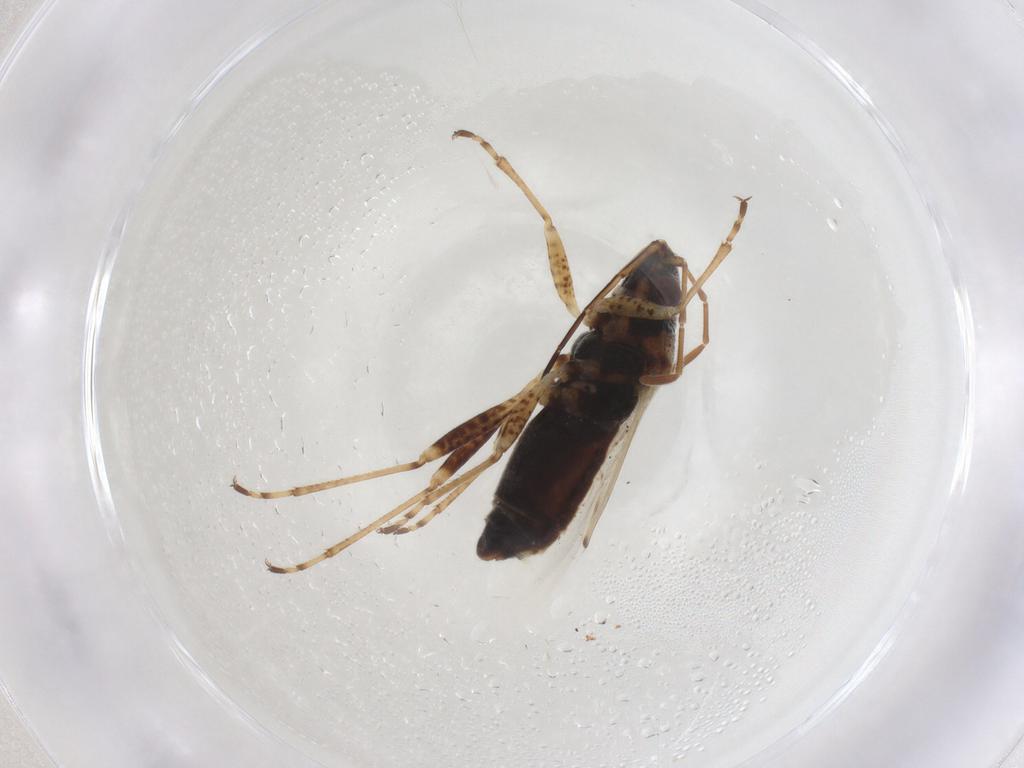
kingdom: Animalia
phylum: Arthropoda
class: Insecta
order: Hemiptera
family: Lygaeidae
